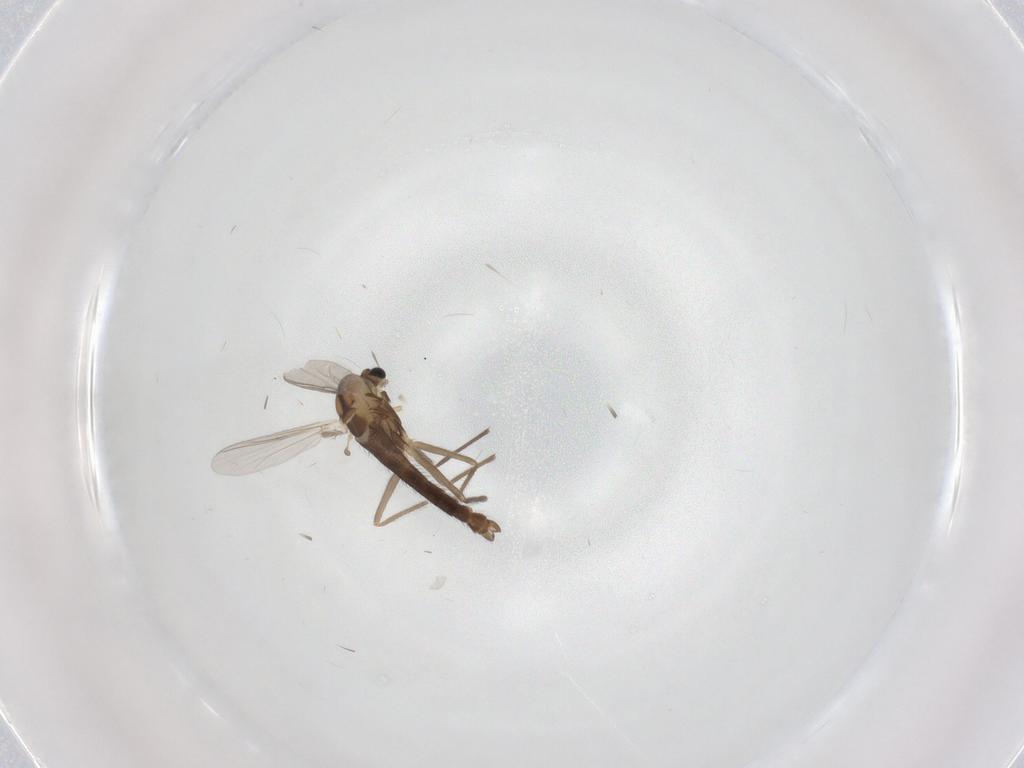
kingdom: Animalia
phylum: Arthropoda
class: Insecta
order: Diptera
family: Chironomidae
